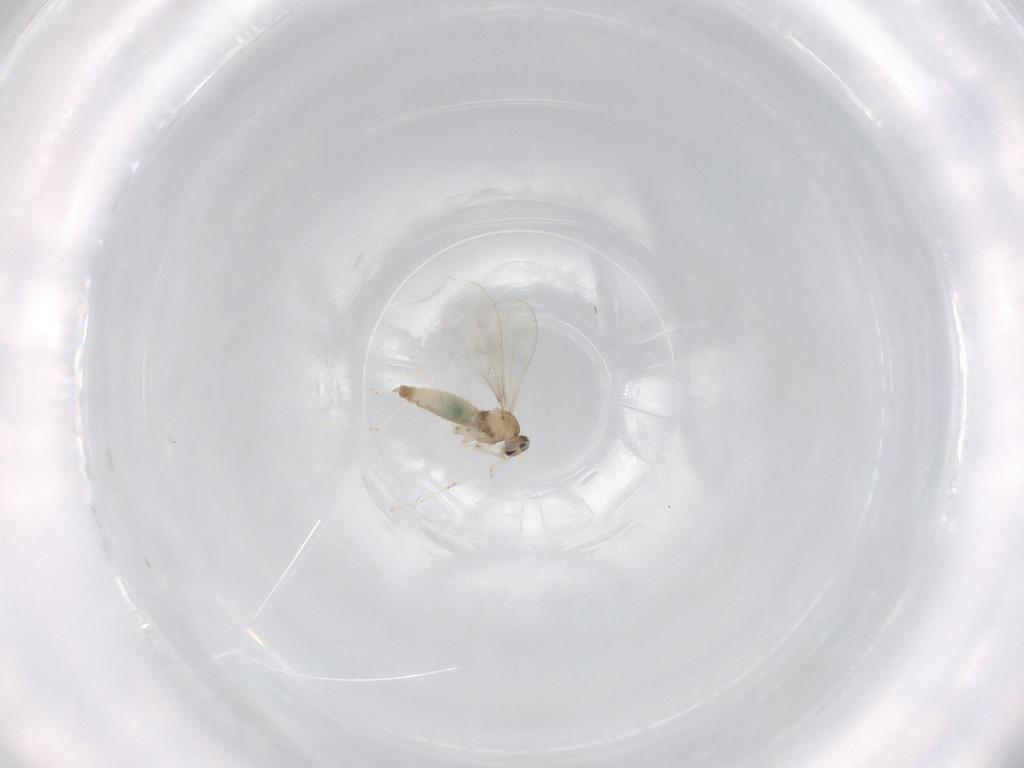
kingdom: Animalia
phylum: Arthropoda
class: Insecta
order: Diptera
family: Cecidomyiidae
